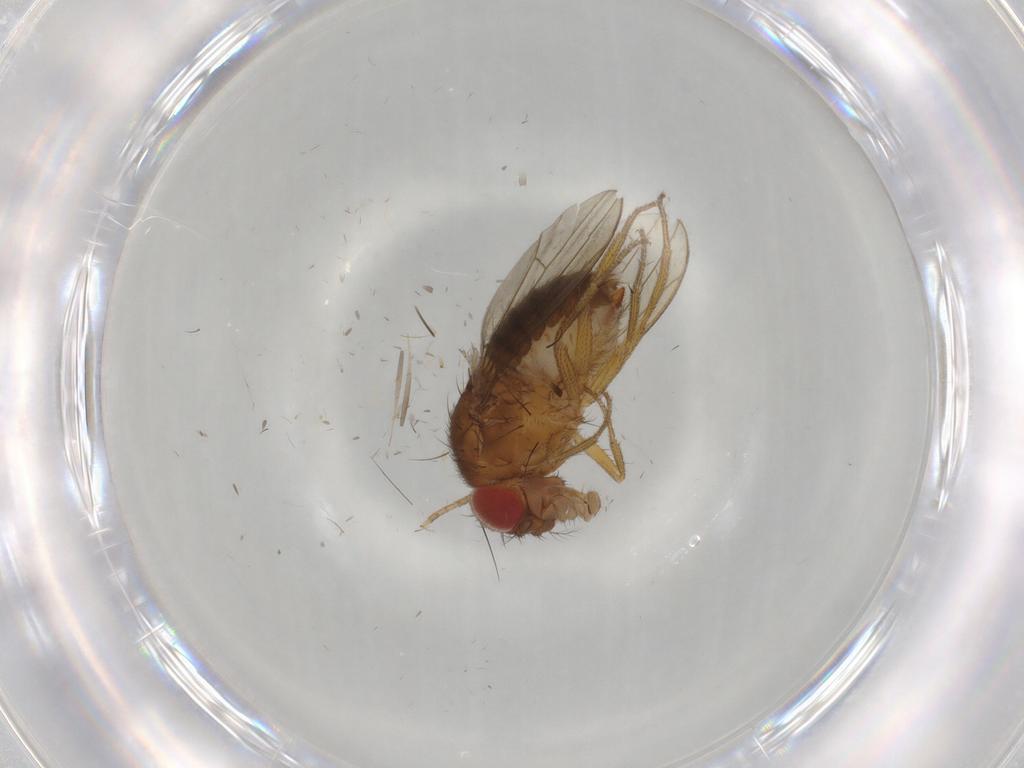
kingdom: Animalia
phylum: Arthropoda
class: Insecta
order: Diptera
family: Drosophilidae
